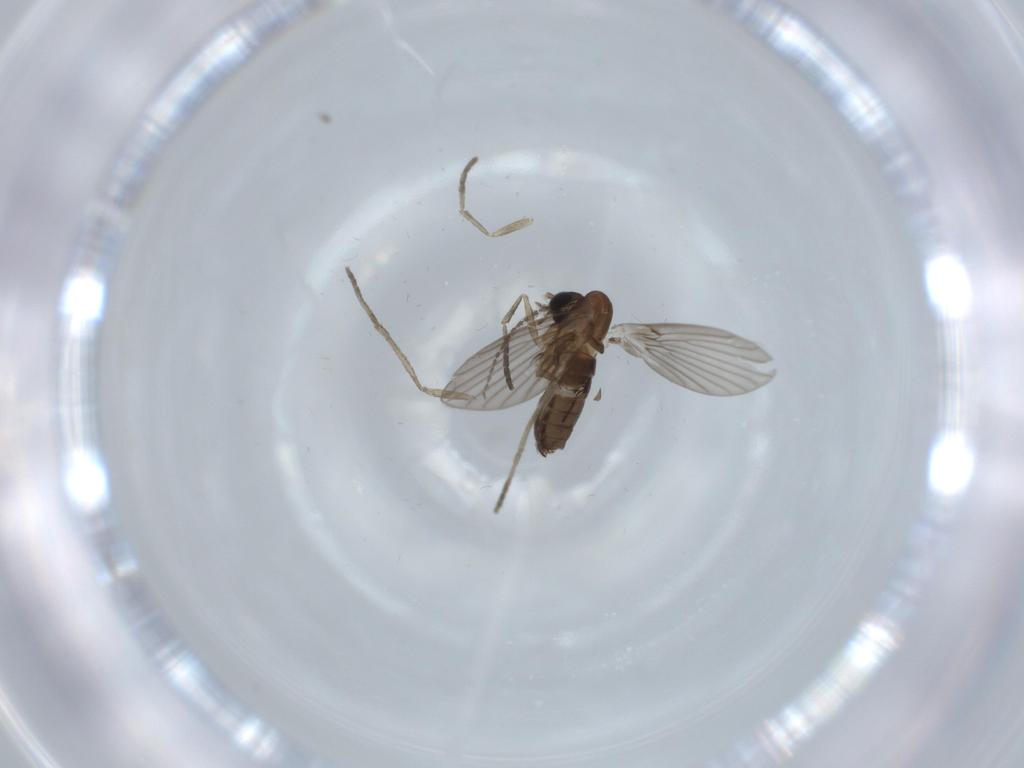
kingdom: Animalia
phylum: Arthropoda
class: Insecta
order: Diptera
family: Psychodidae
